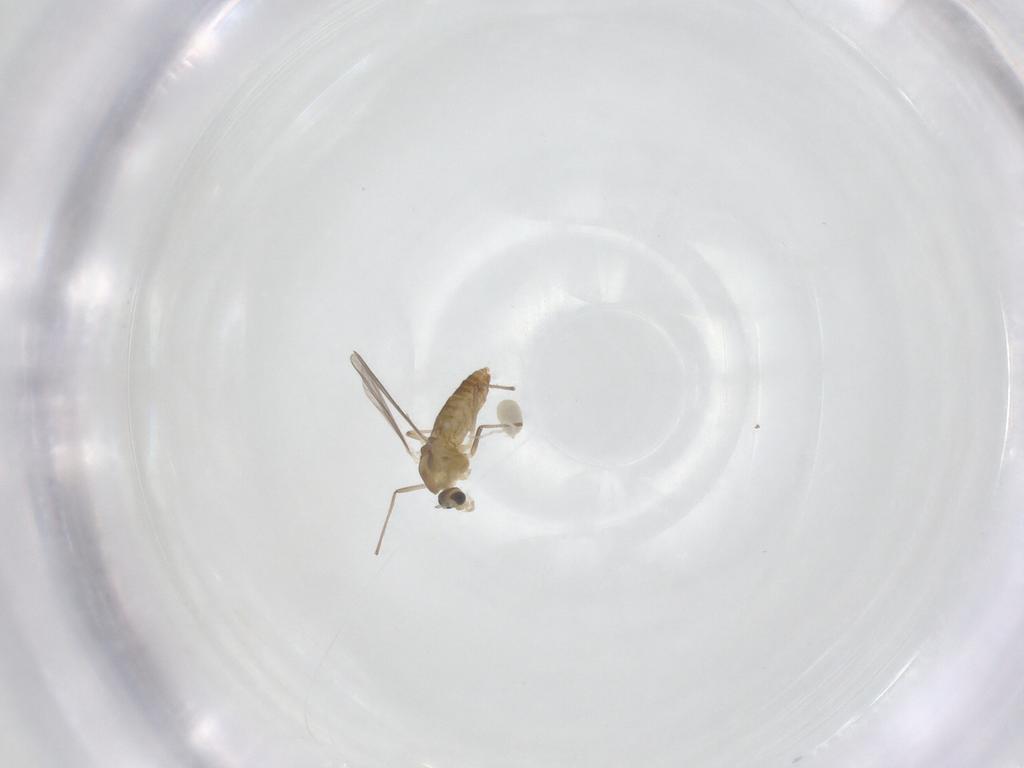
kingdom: Animalia
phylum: Arthropoda
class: Insecta
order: Diptera
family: Chironomidae
